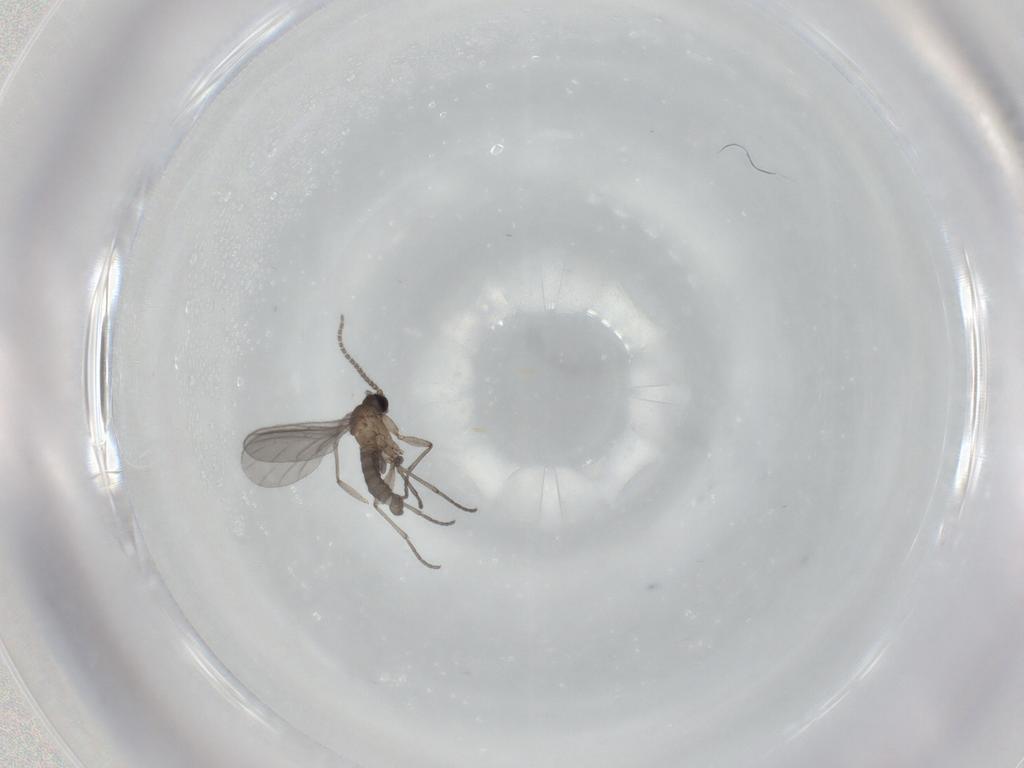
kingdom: Animalia
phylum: Arthropoda
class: Insecta
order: Diptera
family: Sciaridae
